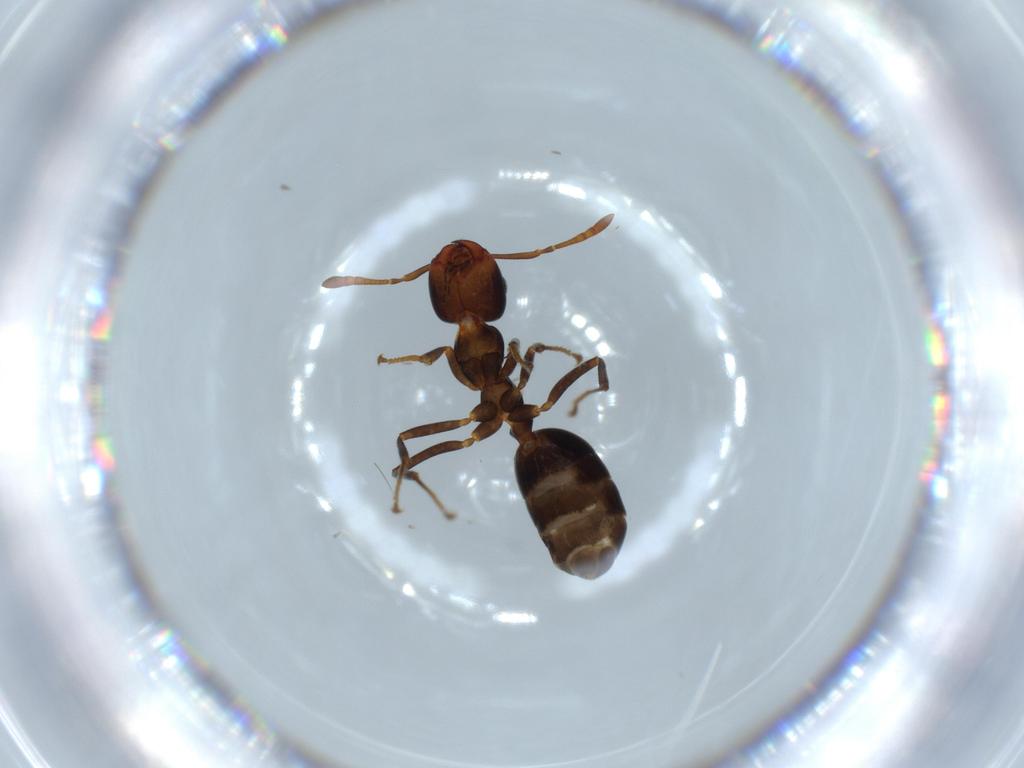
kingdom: Animalia
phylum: Arthropoda
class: Insecta
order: Hymenoptera
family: Formicidae
